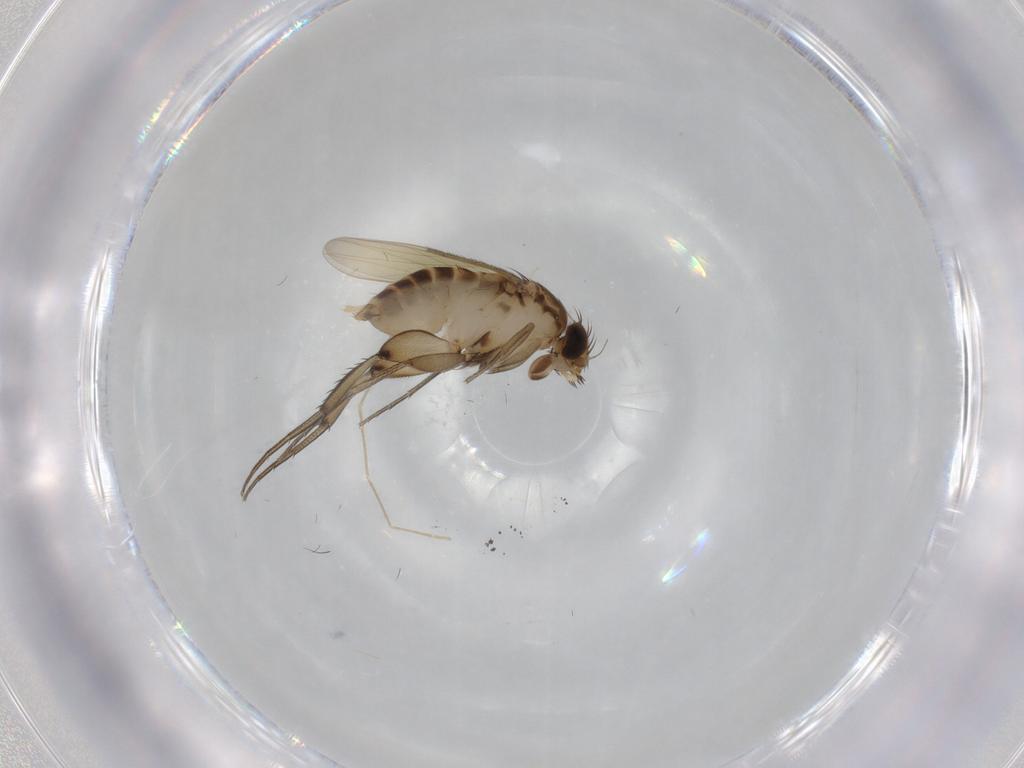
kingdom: Animalia
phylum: Arthropoda
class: Insecta
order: Diptera
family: Phoridae
